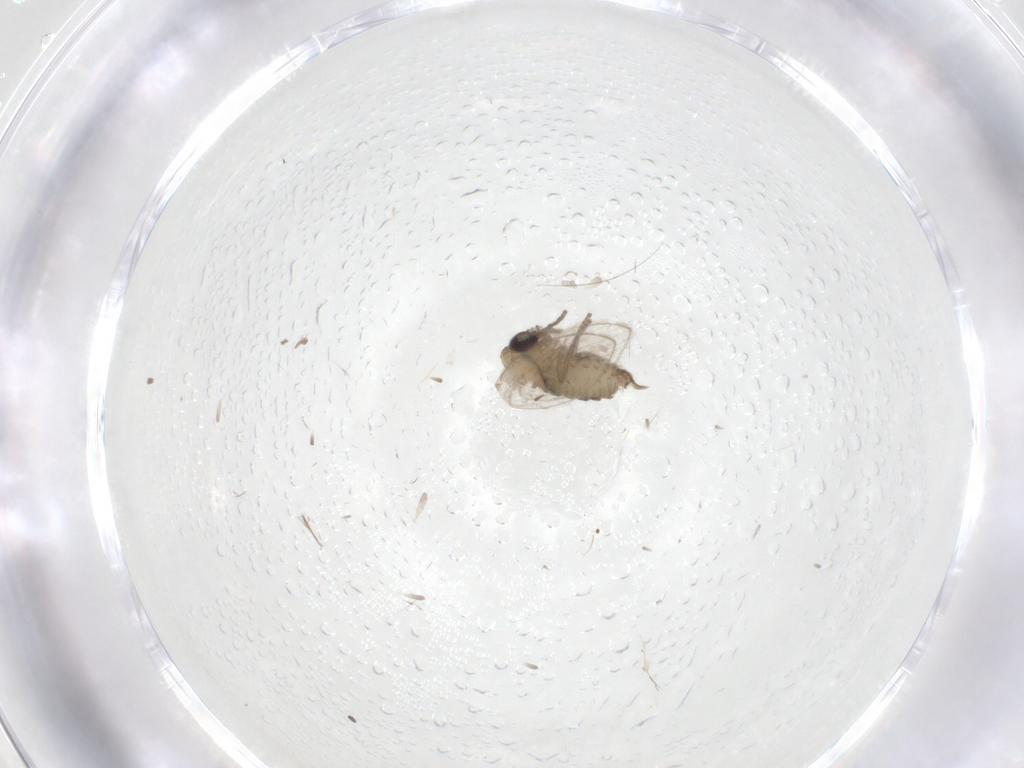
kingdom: Animalia
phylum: Arthropoda
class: Insecta
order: Diptera
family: Psychodidae
